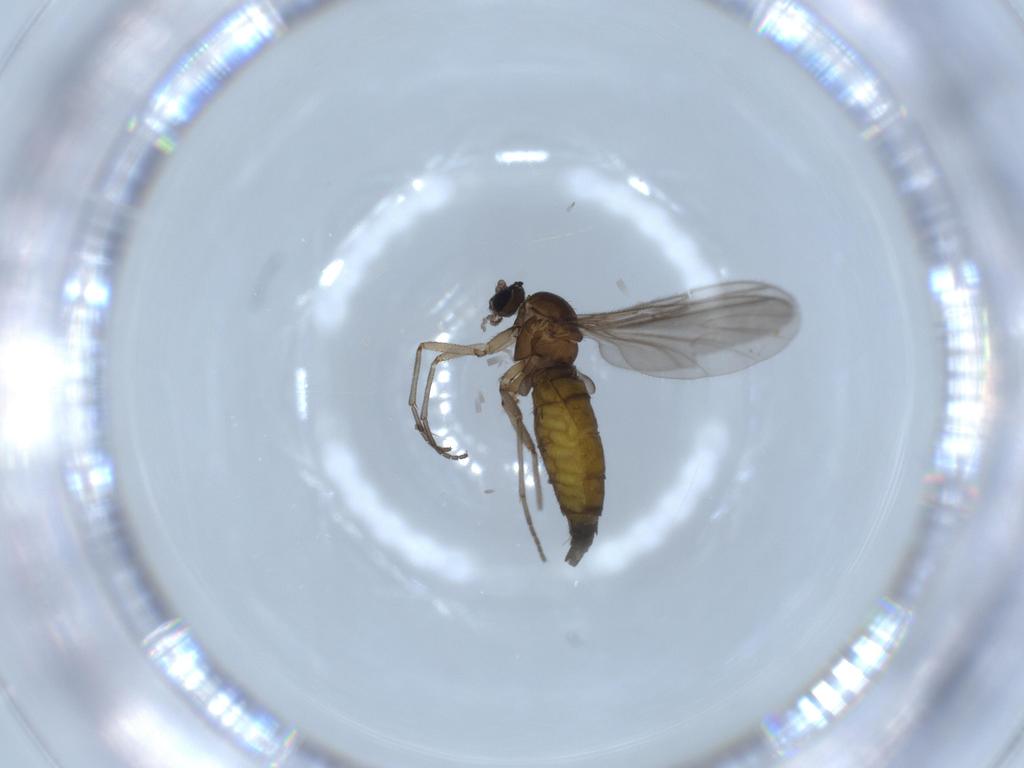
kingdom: Animalia
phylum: Arthropoda
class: Insecta
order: Diptera
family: Sciaridae
